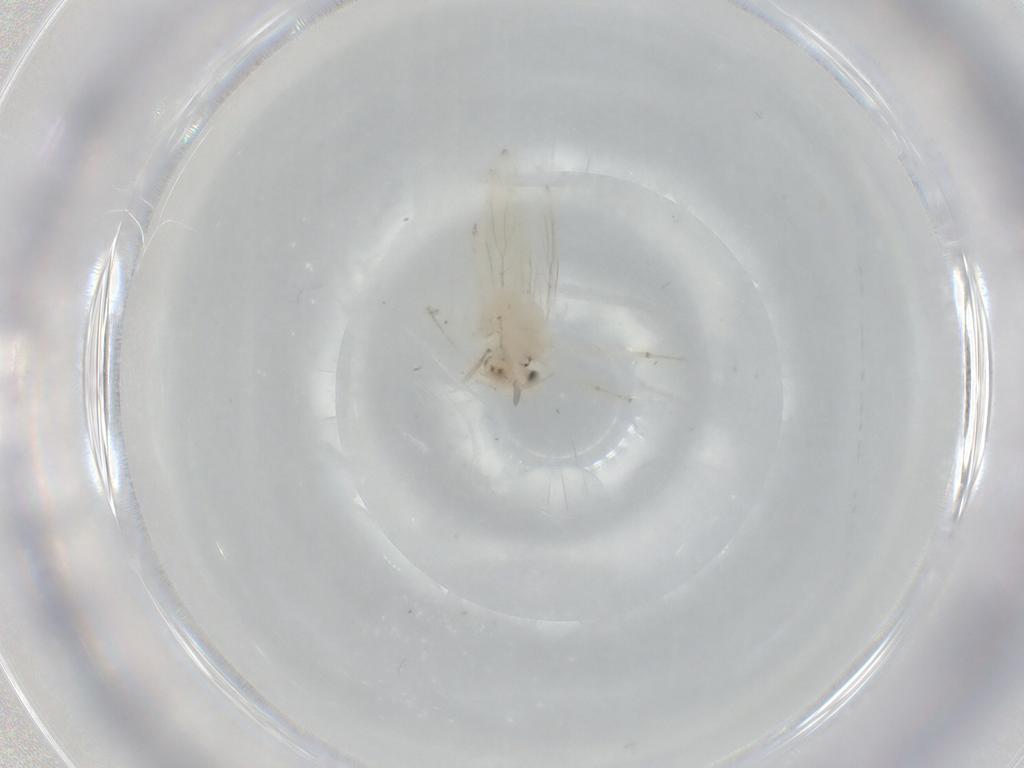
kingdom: Animalia
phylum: Arthropoda
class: Insecta
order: Psocodea
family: Lepidopsocidae
